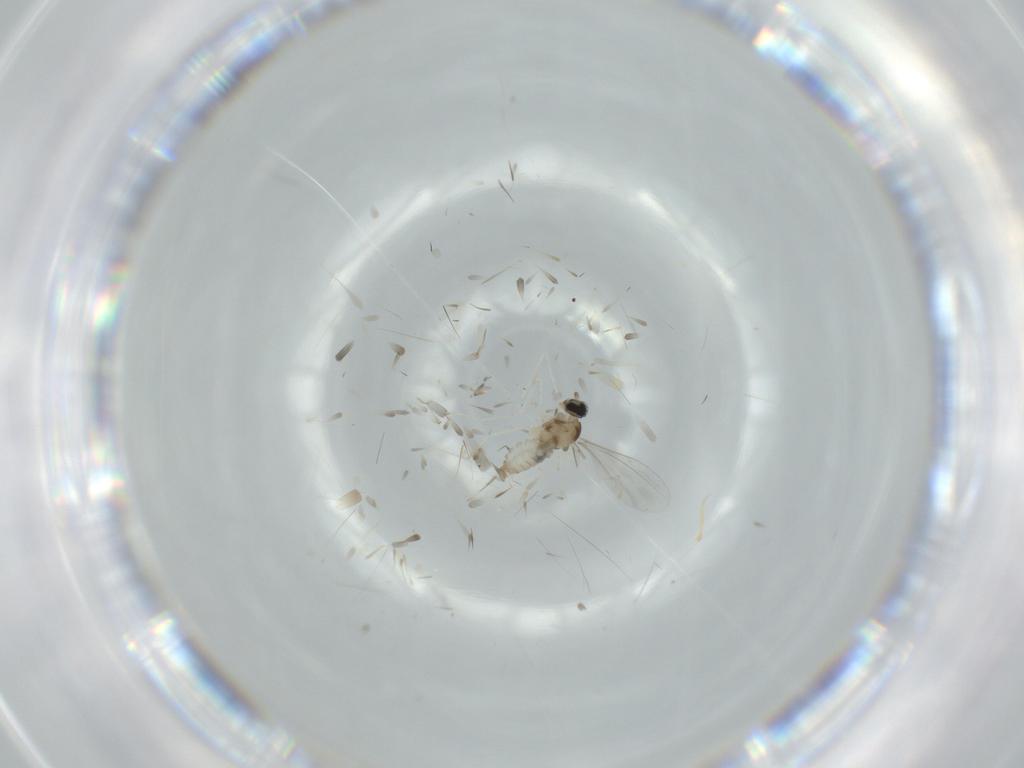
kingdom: Animalia
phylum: Arthropoda
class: Insecta
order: Diptera
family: Cecidomyiidae
